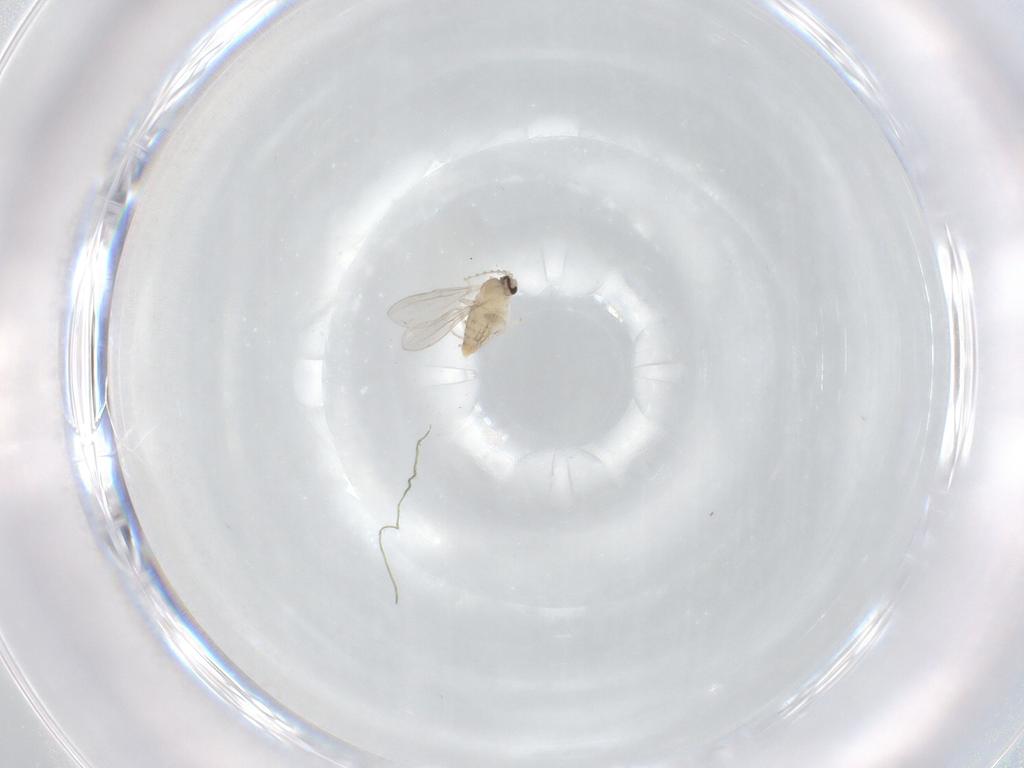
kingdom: Animalia
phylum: Arthropoda
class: Insecta
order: Diptera
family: Cecidomyiidae
